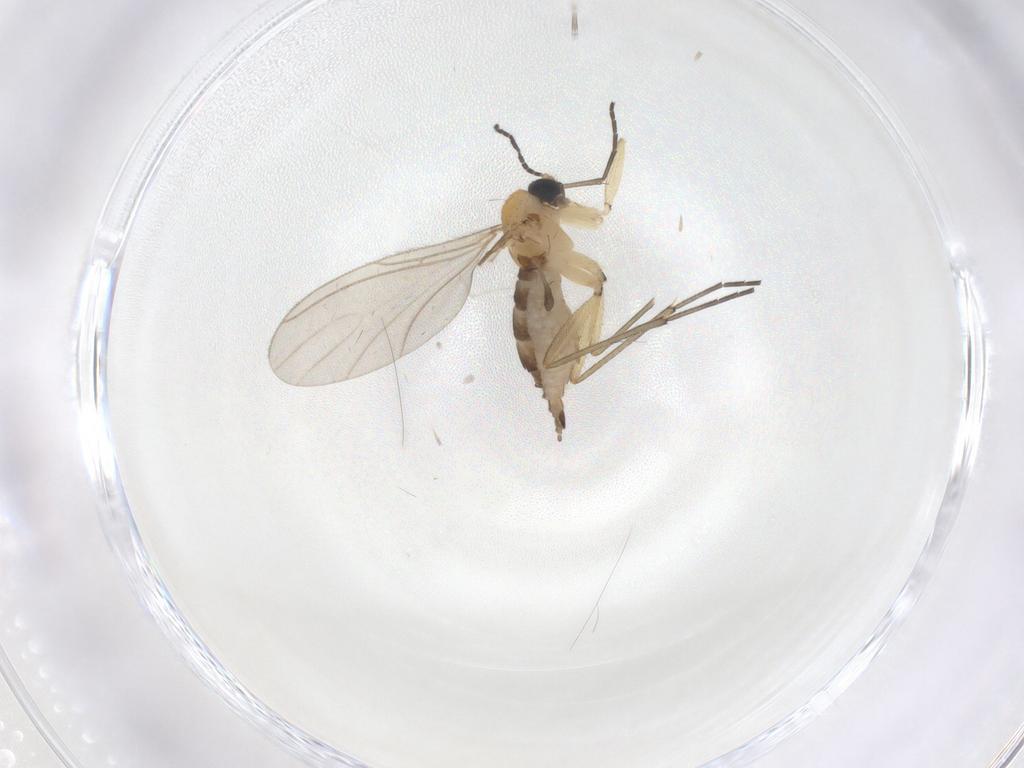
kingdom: Animalia
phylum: Arthropoda
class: Insecta
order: Diptera
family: Sciaridae
